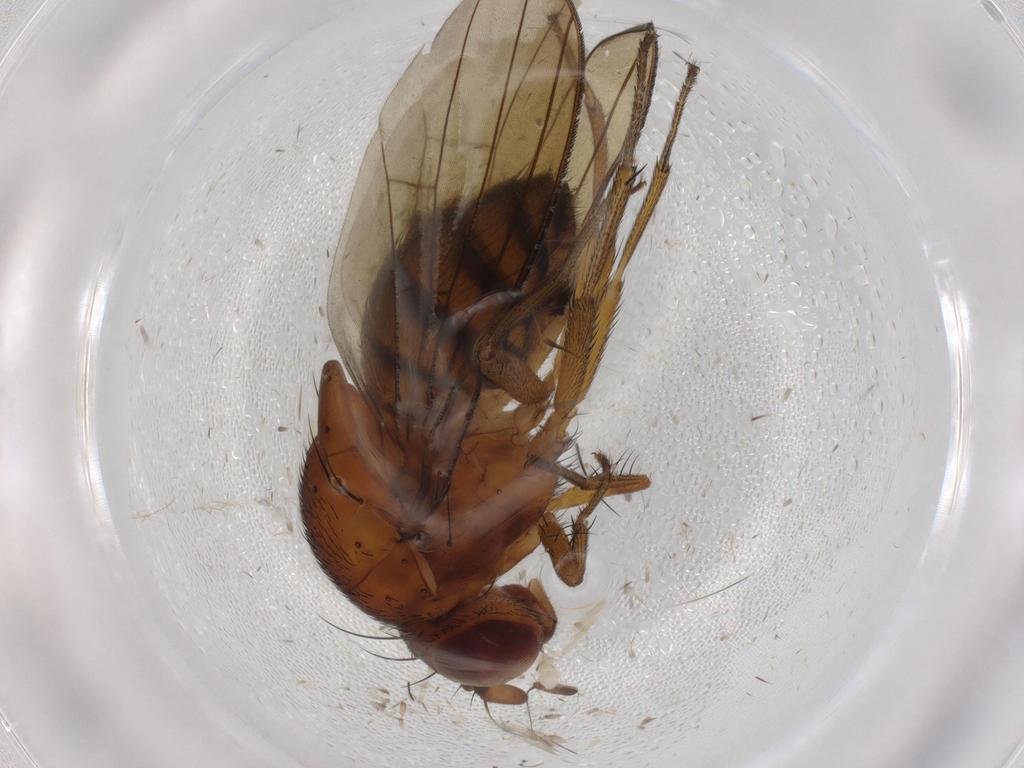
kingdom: Animalia
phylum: Arthropoda
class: Insecta
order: Diptera
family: Ditomyiidae
